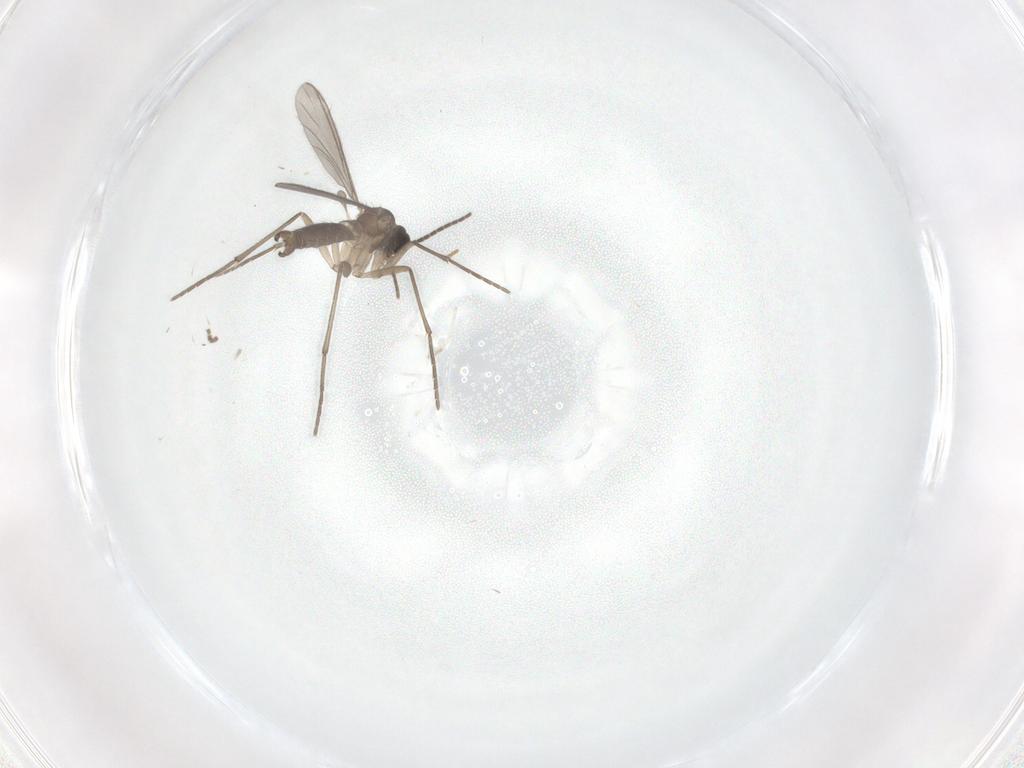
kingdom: Animalia
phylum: Arthropoda
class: Insecta
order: Diptera
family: Sciaridae
